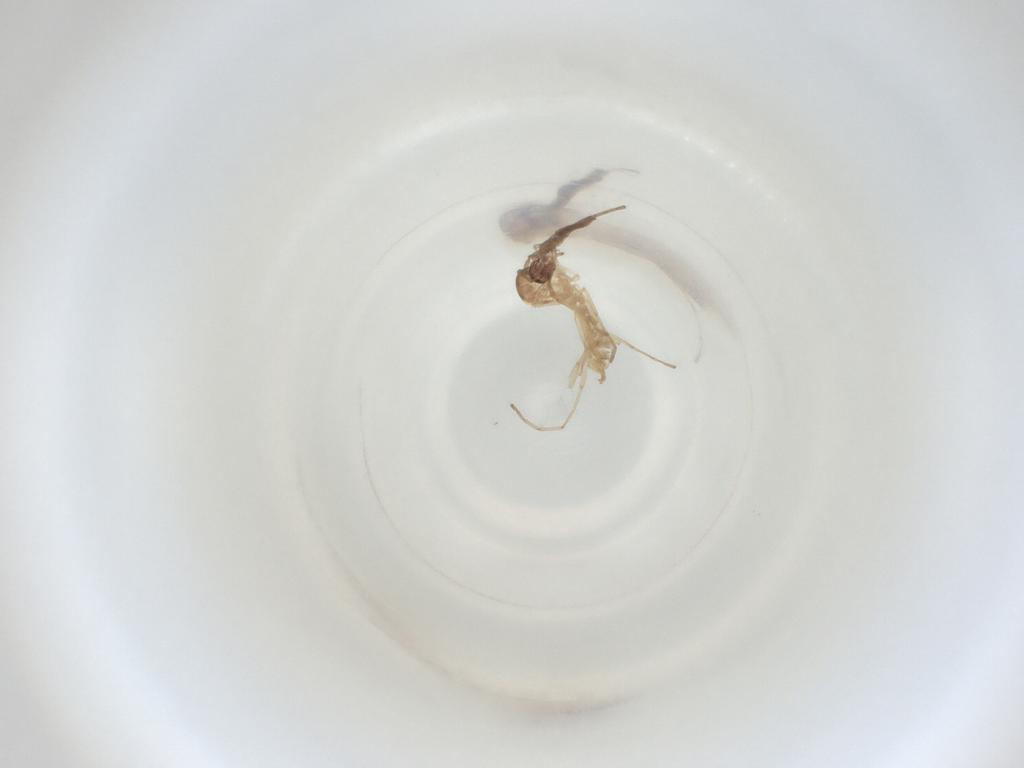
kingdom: Animalia
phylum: Arthropoda
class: Insecta
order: Diptera
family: Cecidomyiidae
